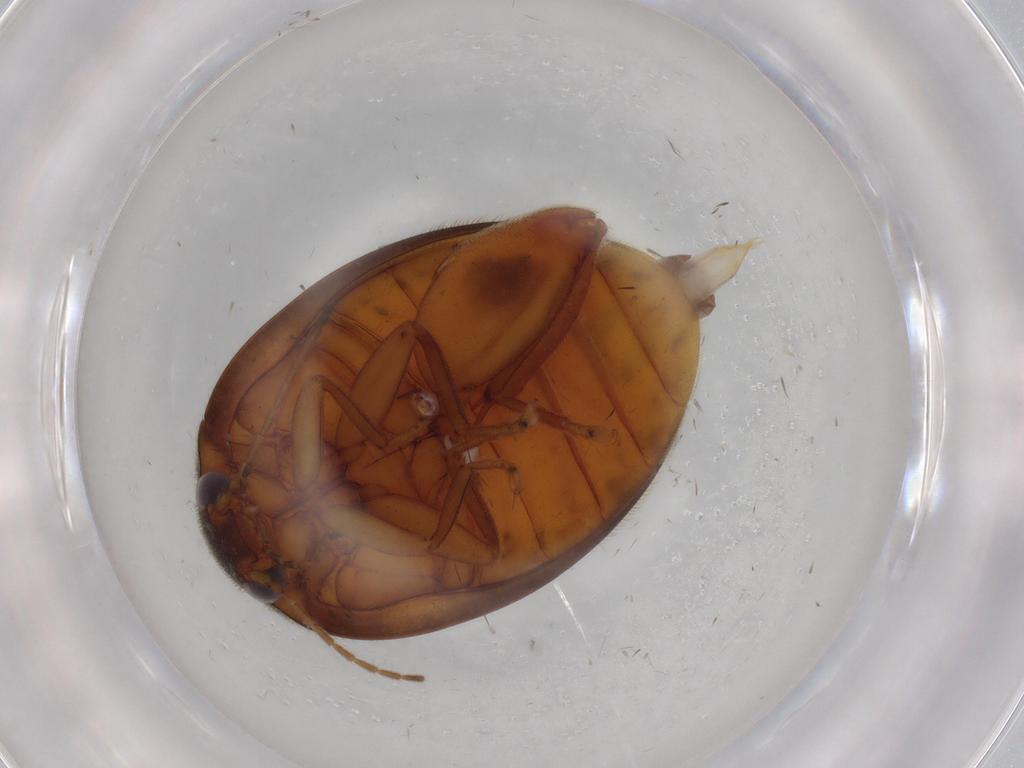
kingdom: Animalia
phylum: Arthropoda
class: Insecta
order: Coleoptera
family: Scirtidae
